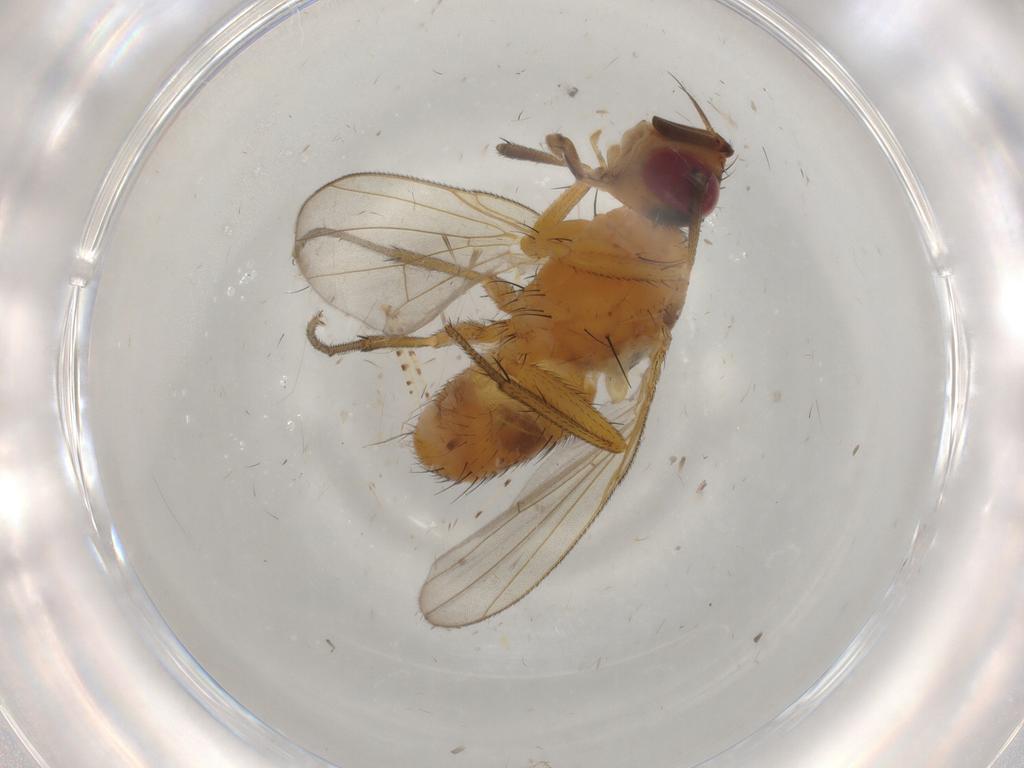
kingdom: Animalia
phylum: Arthropoda
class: Insecta
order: Diptera
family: Muscidae
